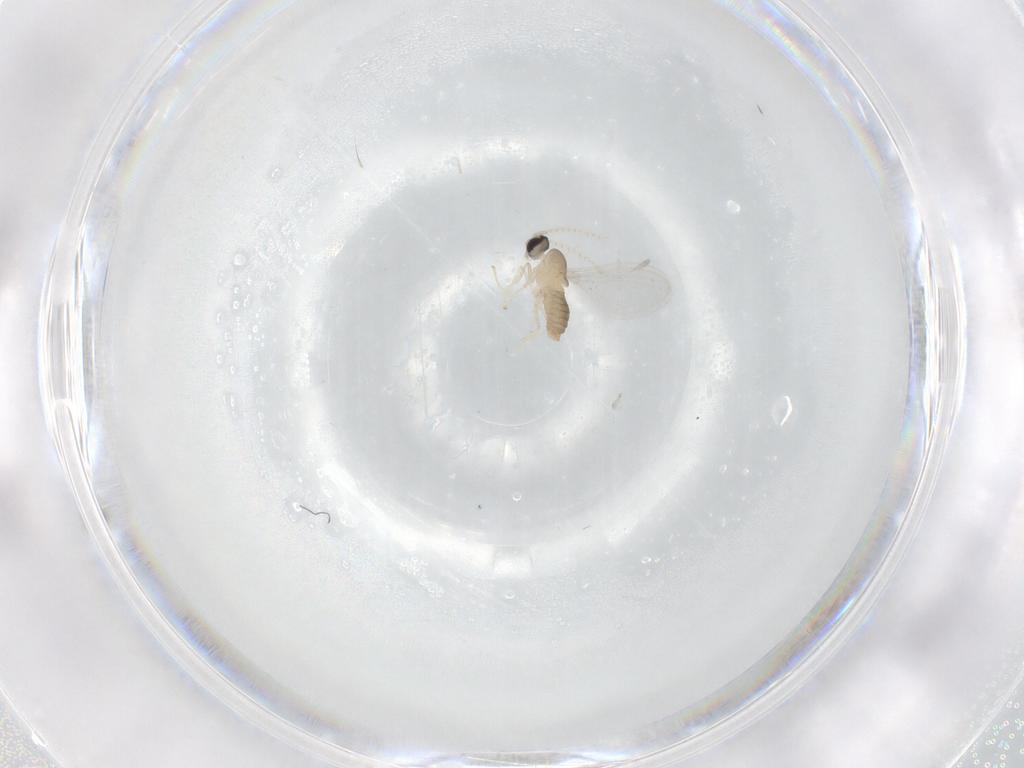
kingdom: Animalia
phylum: Arthropoda
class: Insecta
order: Diptera
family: Cecidomyiidae
